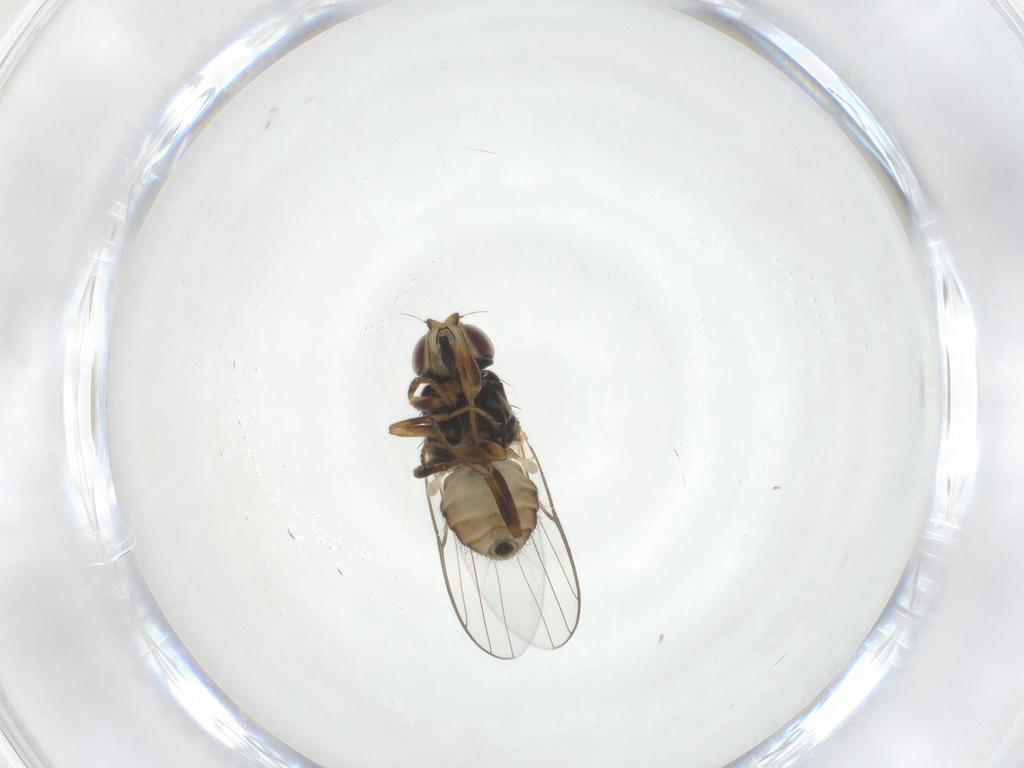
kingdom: Animalia
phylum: Arthropoda
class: Insecta
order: Diptera
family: Chloropidae
